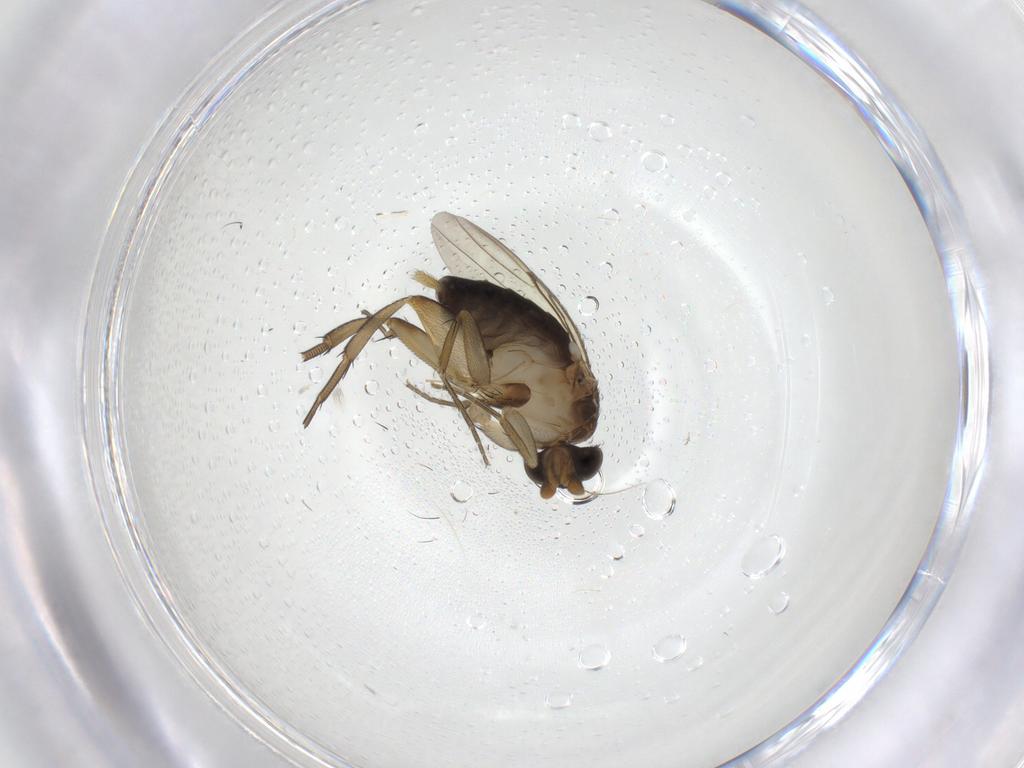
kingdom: Animalia
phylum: Arthropoda
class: Insecta
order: Diptera
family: Phoridae
